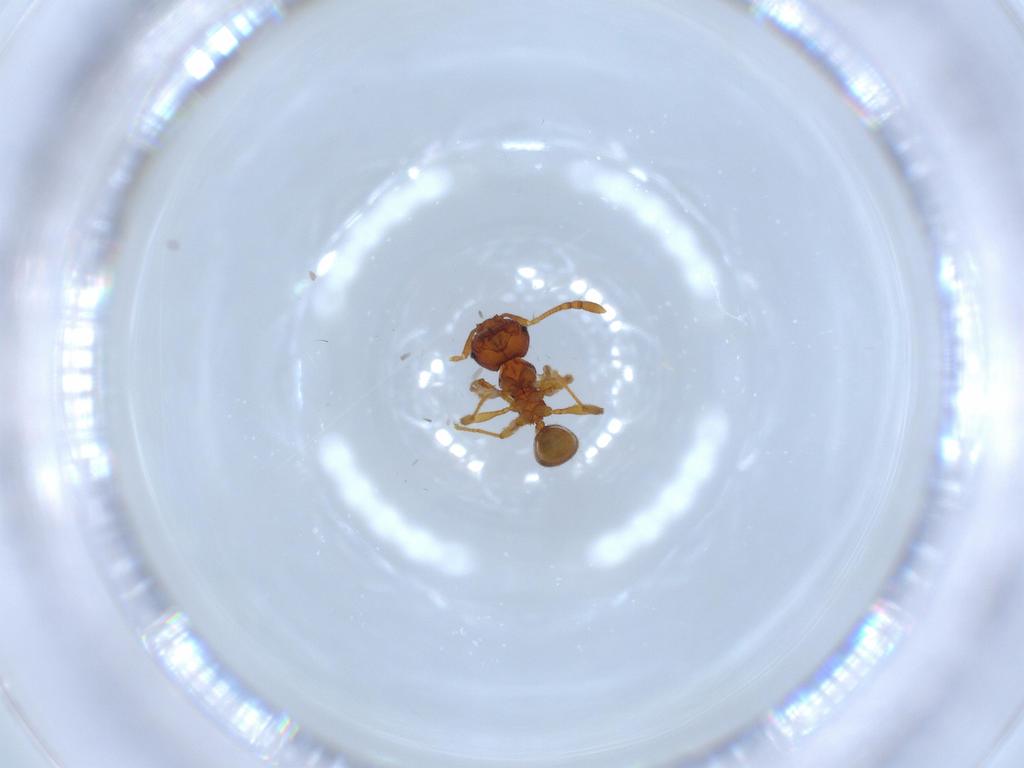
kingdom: Animalia
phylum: Arthropoda
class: Insecta
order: Hymenoptera
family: Formicidae
